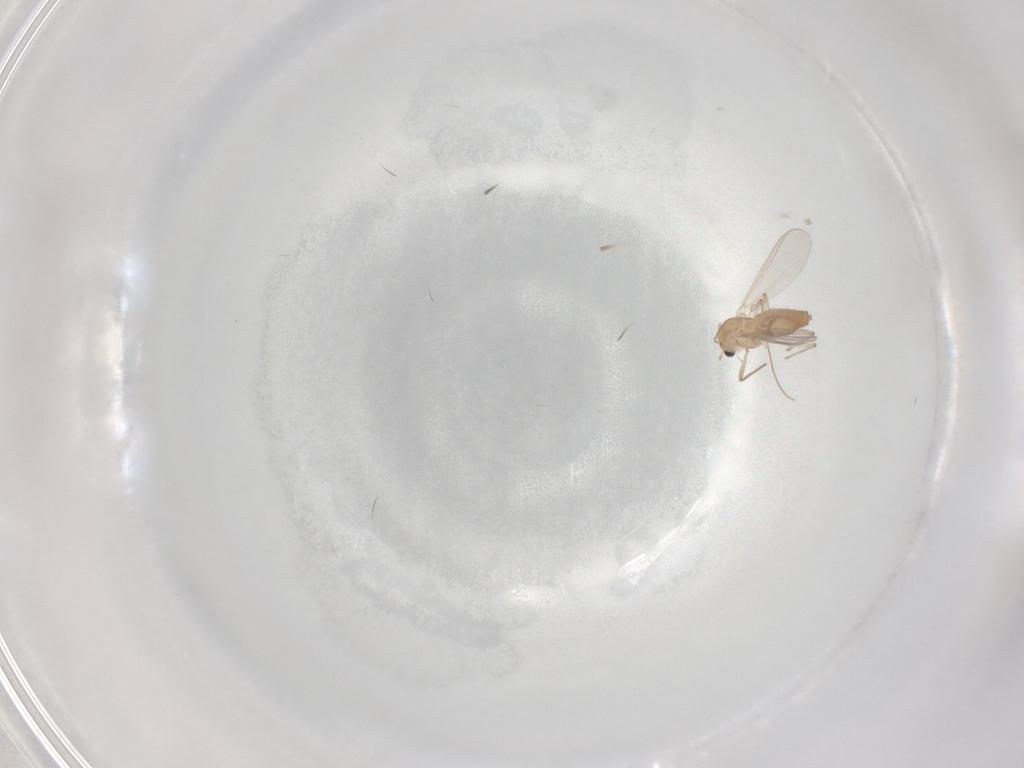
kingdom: Animalia
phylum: Arthropoda
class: Insecta
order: Diptera
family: Chironomidae
